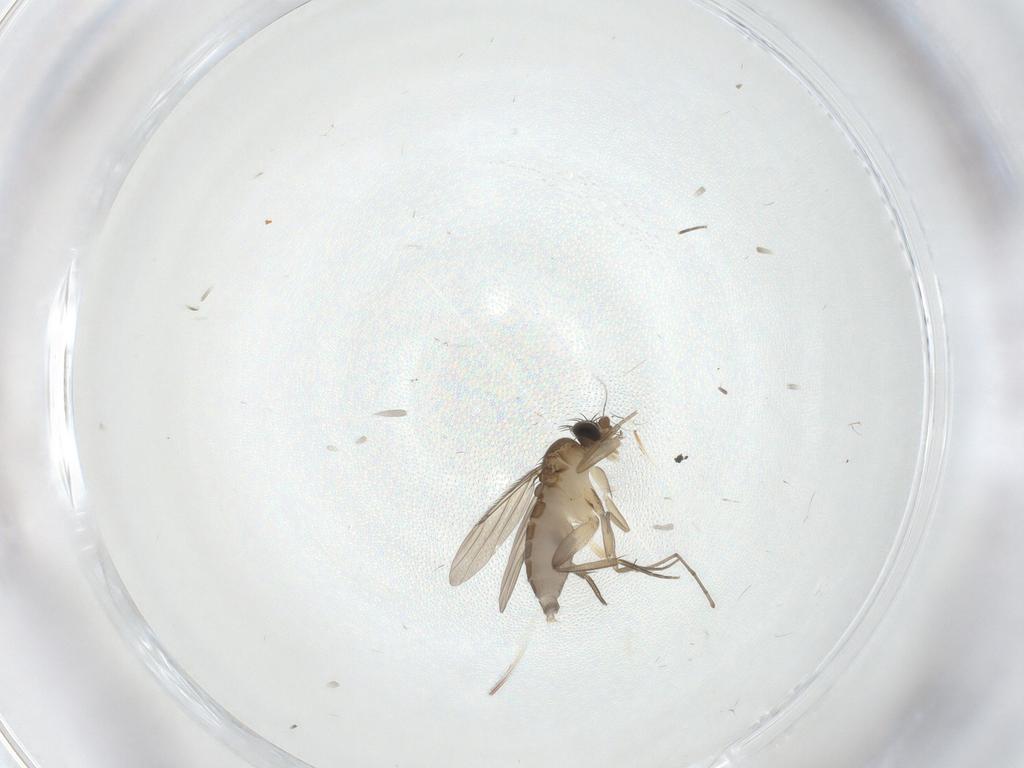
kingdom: Animalia
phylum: Arthropoda
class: Insecta
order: Diptera
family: Phoridae
